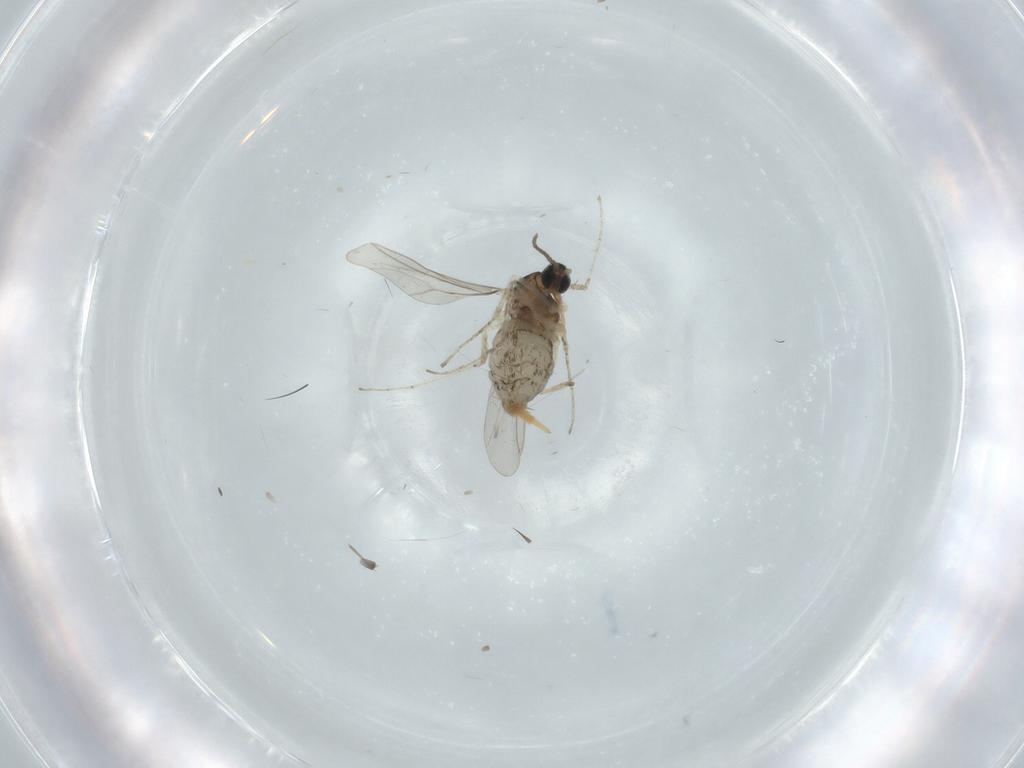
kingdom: Animalia
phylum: Arthropoda
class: Insecta
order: Diptera
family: Cecidomyiidae
